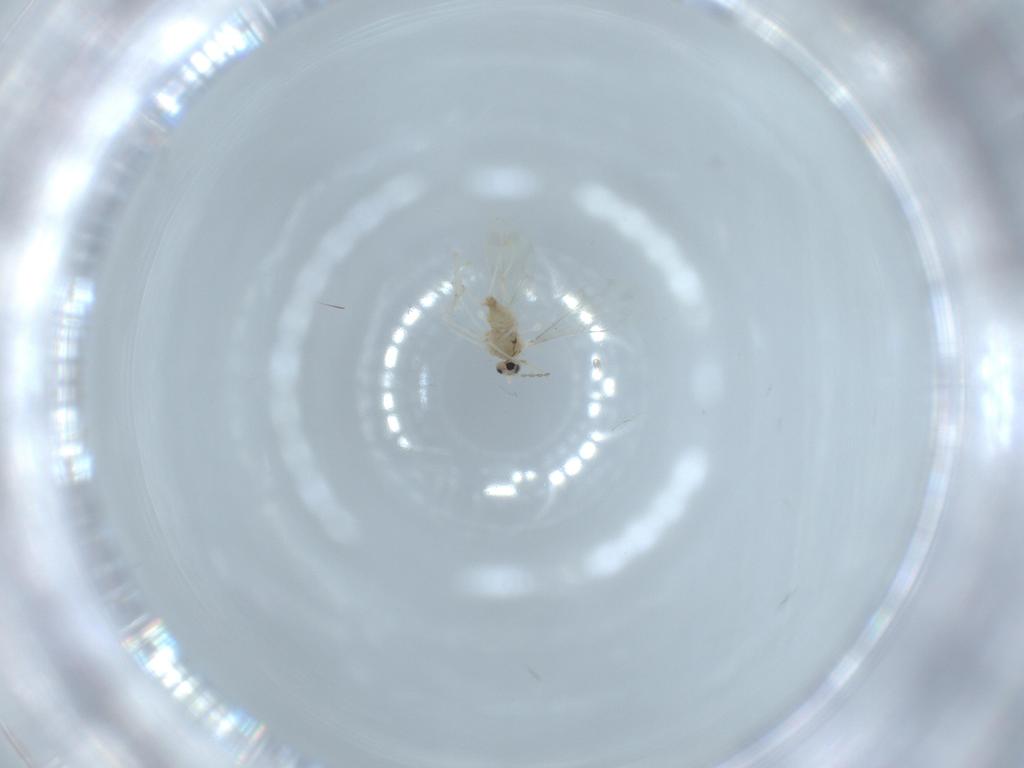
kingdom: Animalia
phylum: Arthropoda
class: Insecta
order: Diptera
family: Cecidomyiidae
